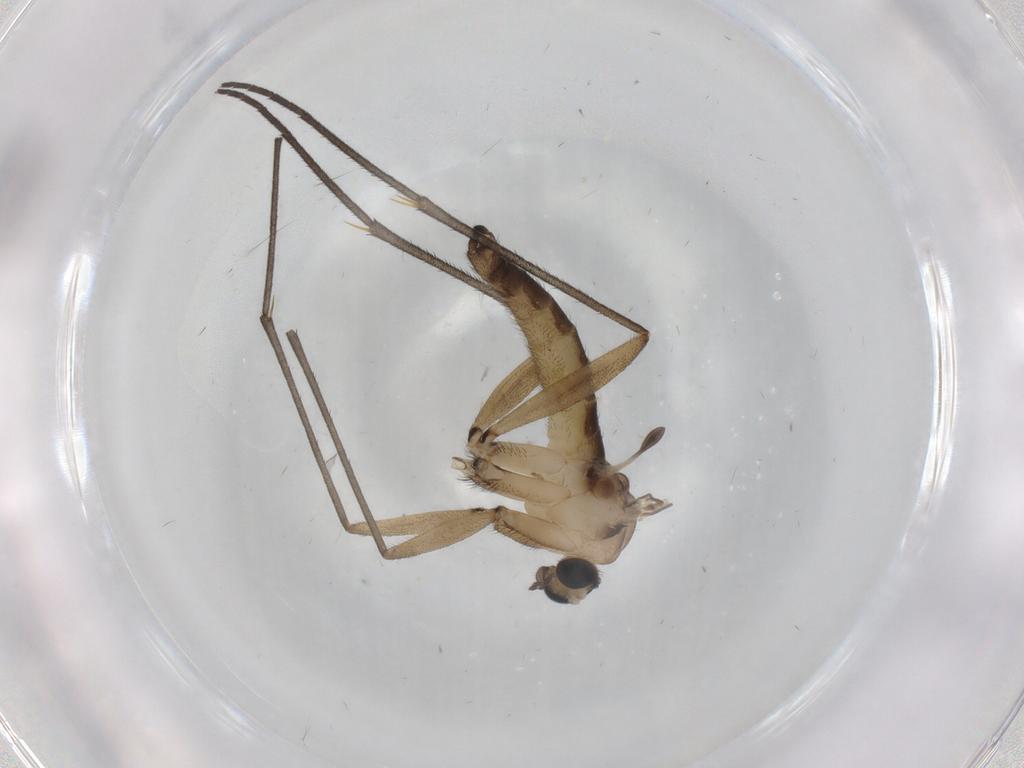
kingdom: Animalia
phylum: Arthropoda
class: Insecta
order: Diptera
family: Sciaridae
